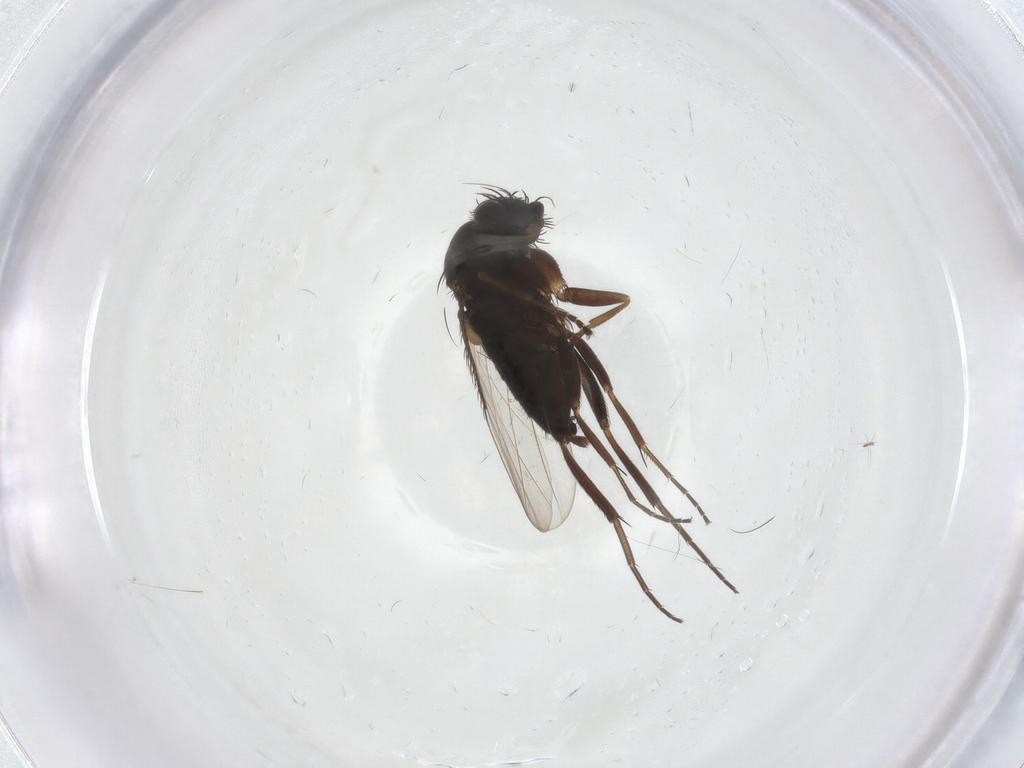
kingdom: Animalia
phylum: Arthropoda
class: Insecta
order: Diptera
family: Phoridae
